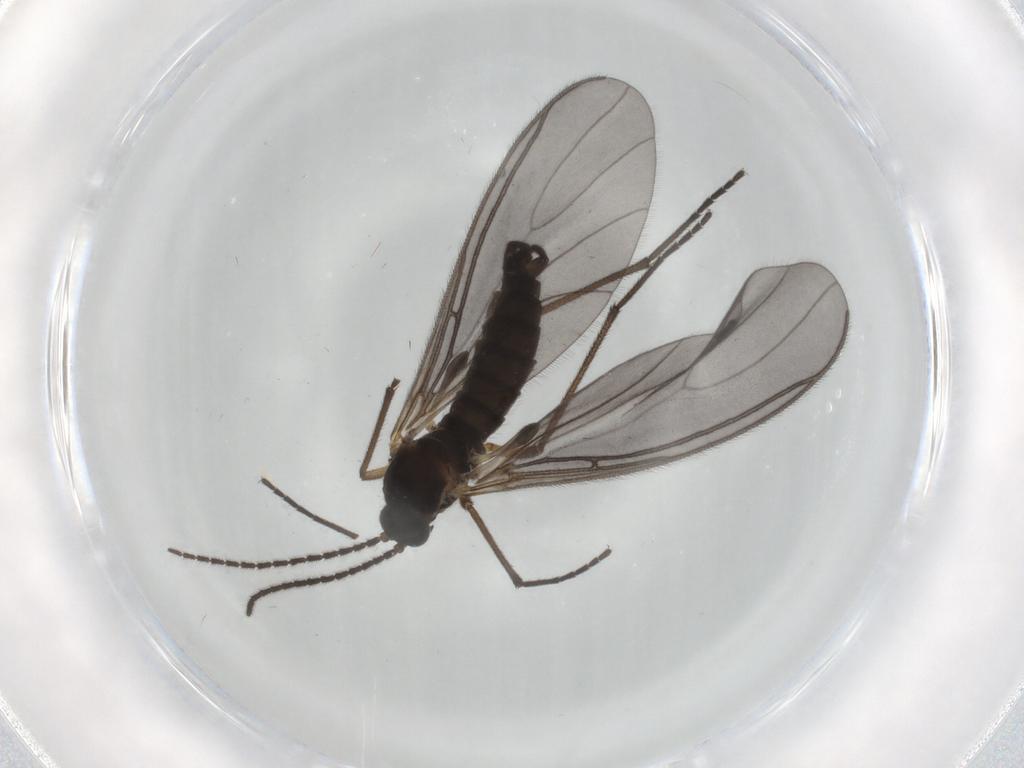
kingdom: Animalia
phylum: Arthropoda
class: Insecta
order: Diptera
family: Sciaridae
